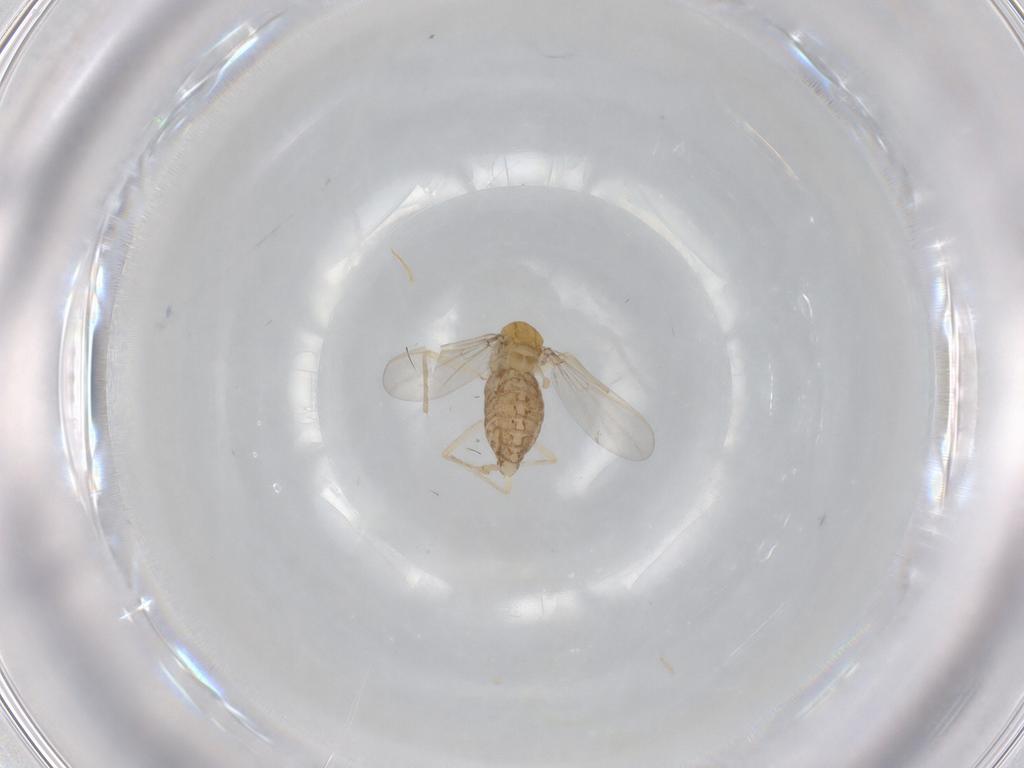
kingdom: Animalia
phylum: Arthropoda
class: Insecta
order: Diptera
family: Chironomidae
